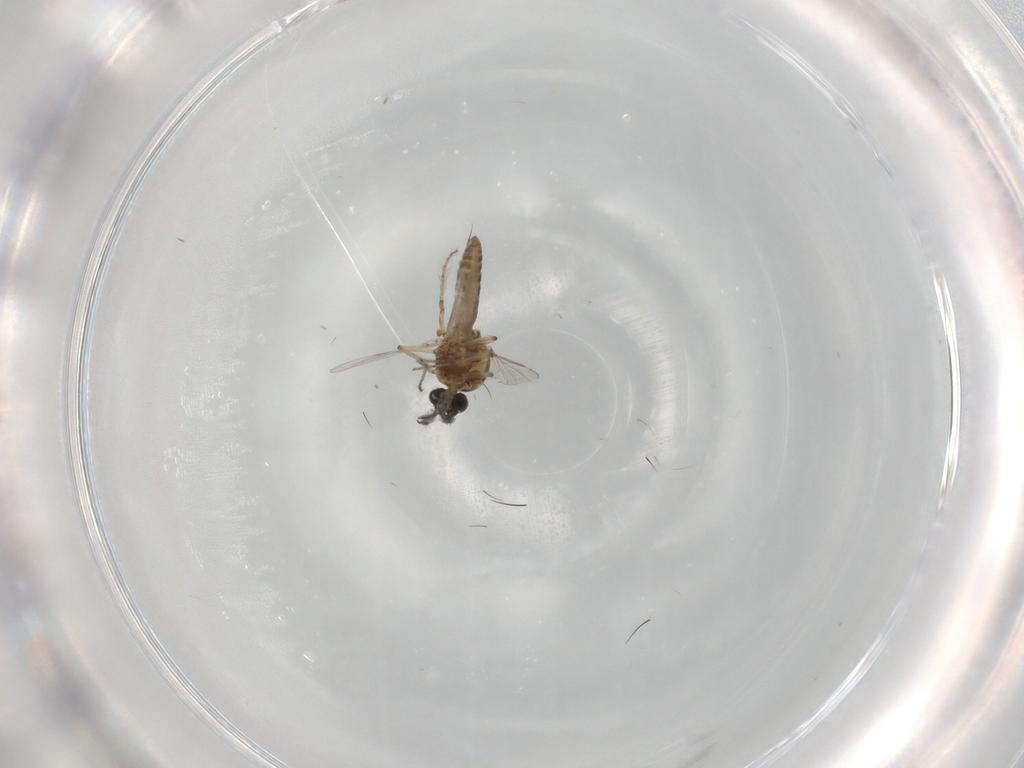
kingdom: Animalia
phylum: Arthropoda
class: Insecta
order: Diptera
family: Ceratopogonidae
